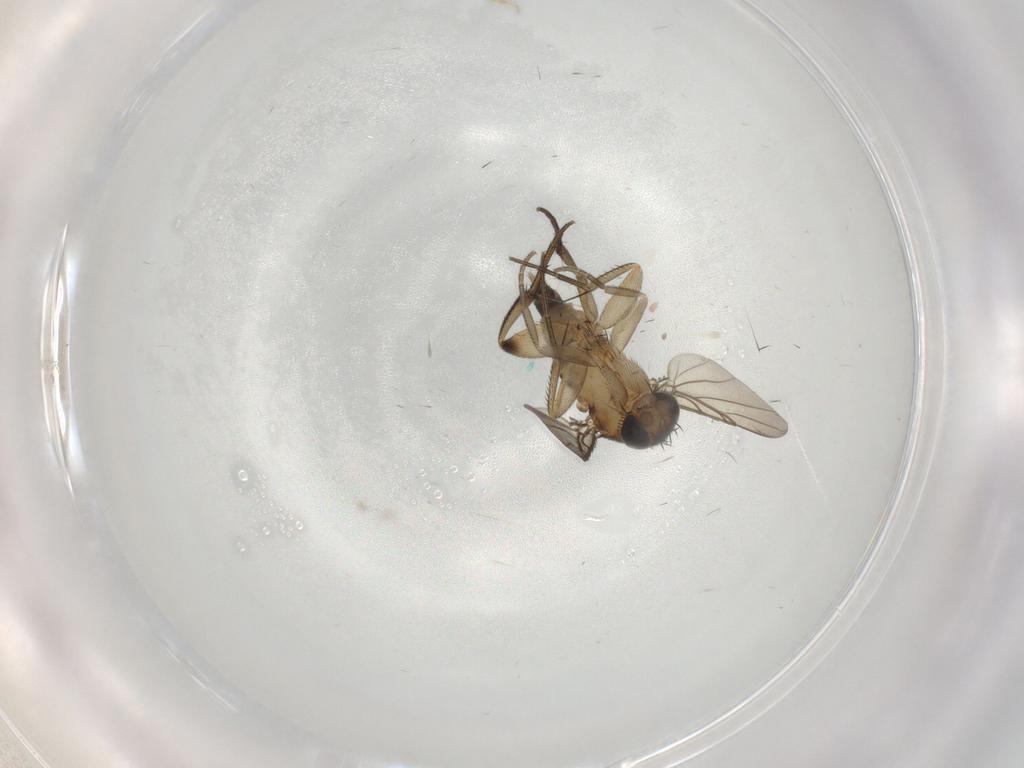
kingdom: Animalia
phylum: Arthropoda
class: Insecta
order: Diptera
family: Phoridae
